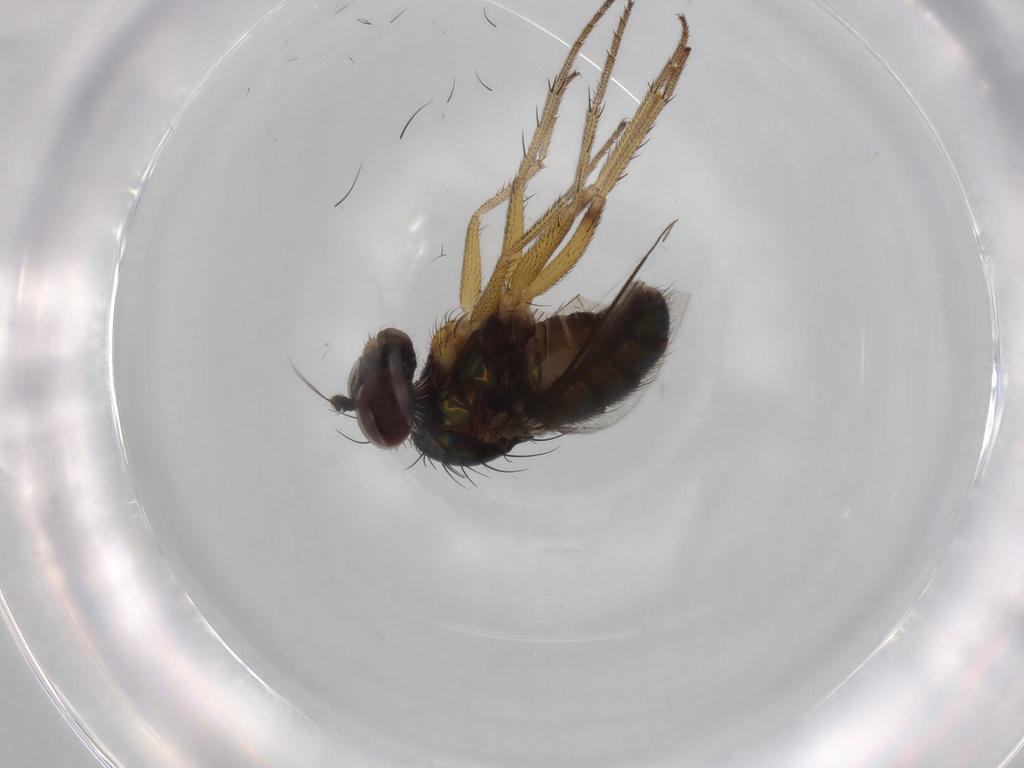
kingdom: Animalia
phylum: Arthropoda
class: Insecta
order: Diptera
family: Dolichopodidae
